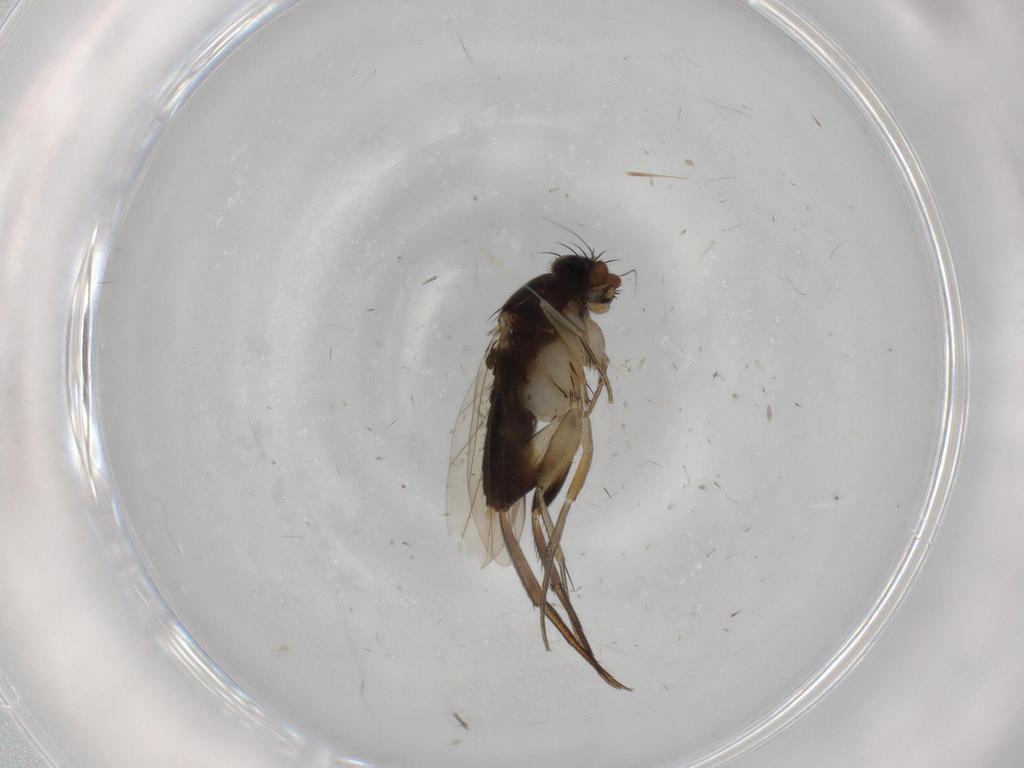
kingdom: Animalia
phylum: Arthropoda
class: Insecta
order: Diptera
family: Phoridae
